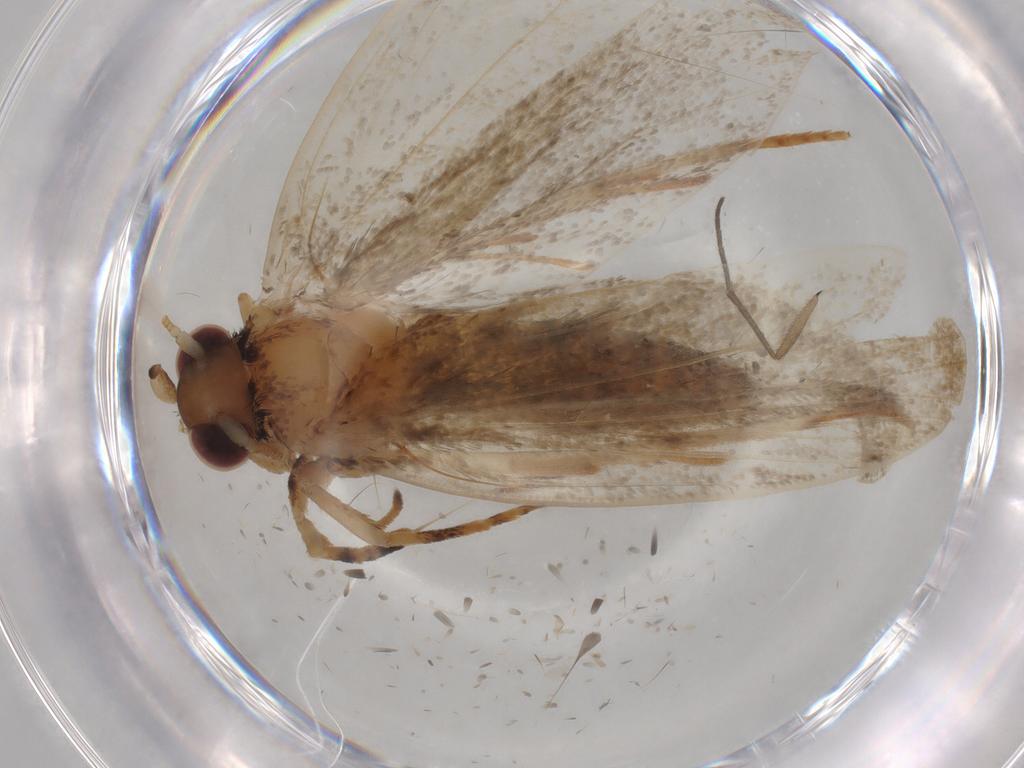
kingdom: Animalia
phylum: Arthropoda
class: Insecta
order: Lepidoptera
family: Tineidae
